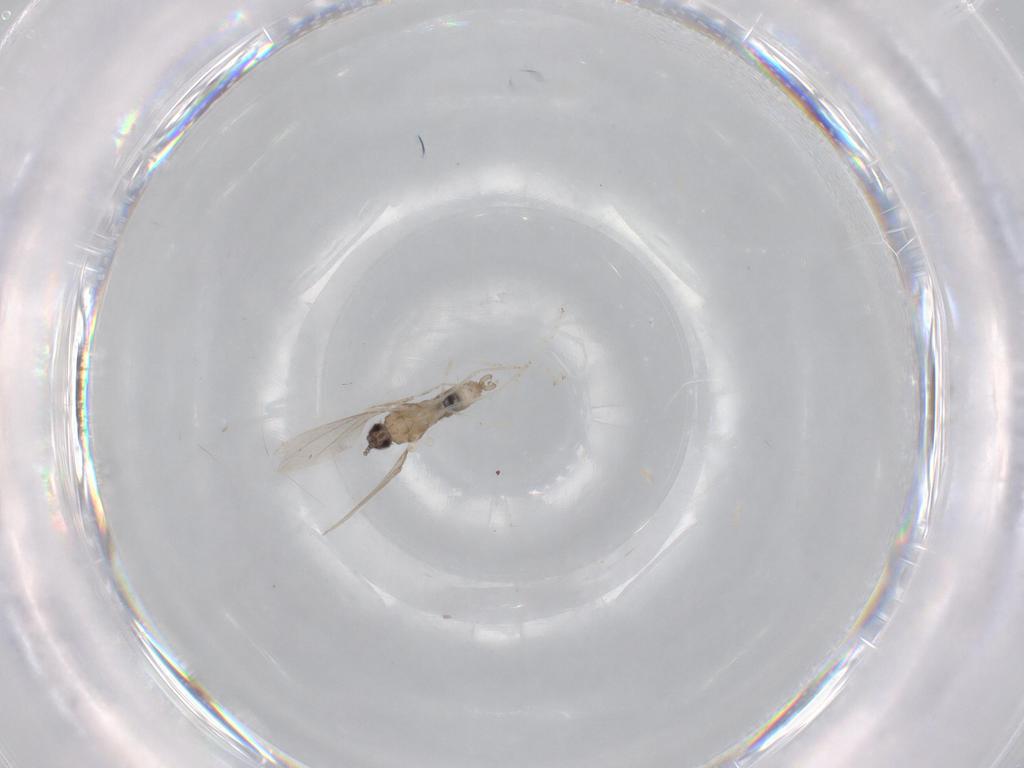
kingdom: Animalia
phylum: Arthropoda
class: Insecta
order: Diptera
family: Cecidomyiidae
